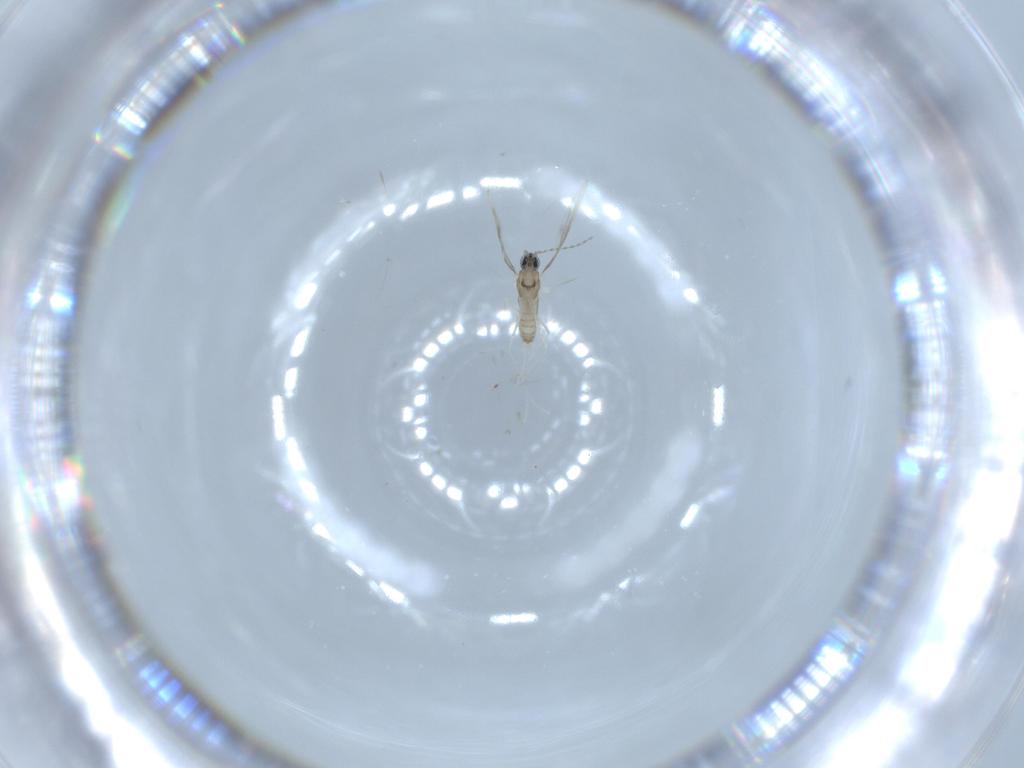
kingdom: Animalia
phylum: Arthropoda
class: Insecta
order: Diptera
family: Cecidomyiidae
